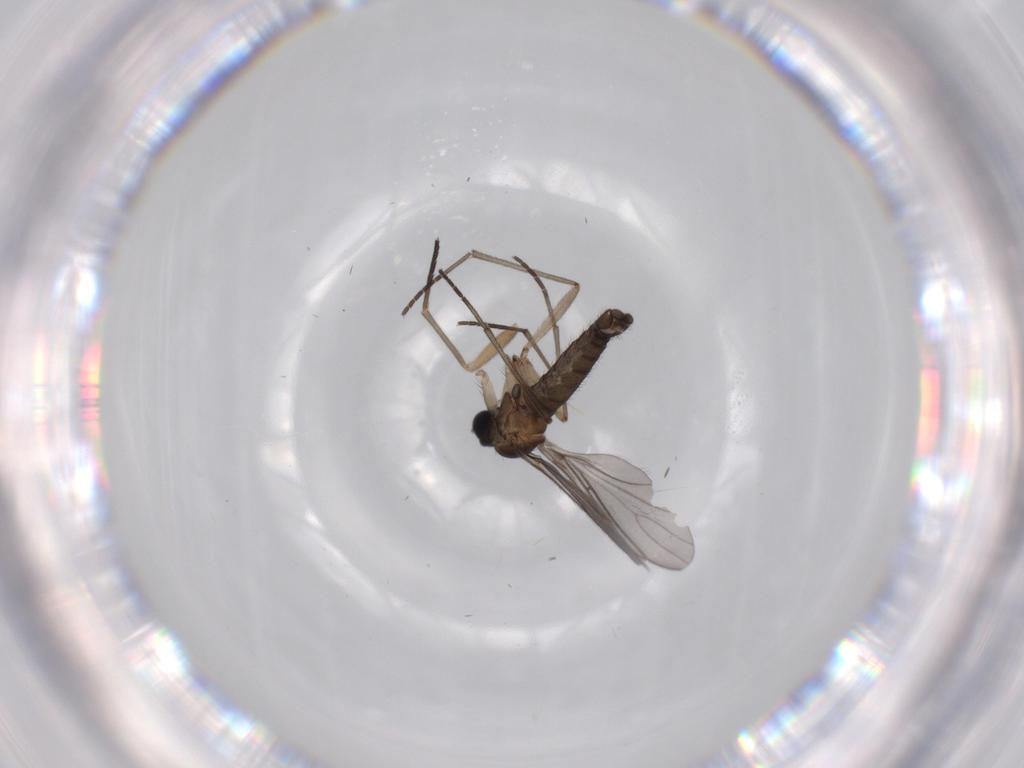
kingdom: Animalia
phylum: Arthropoda
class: Insecta
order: Diptera
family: Sciaridae
